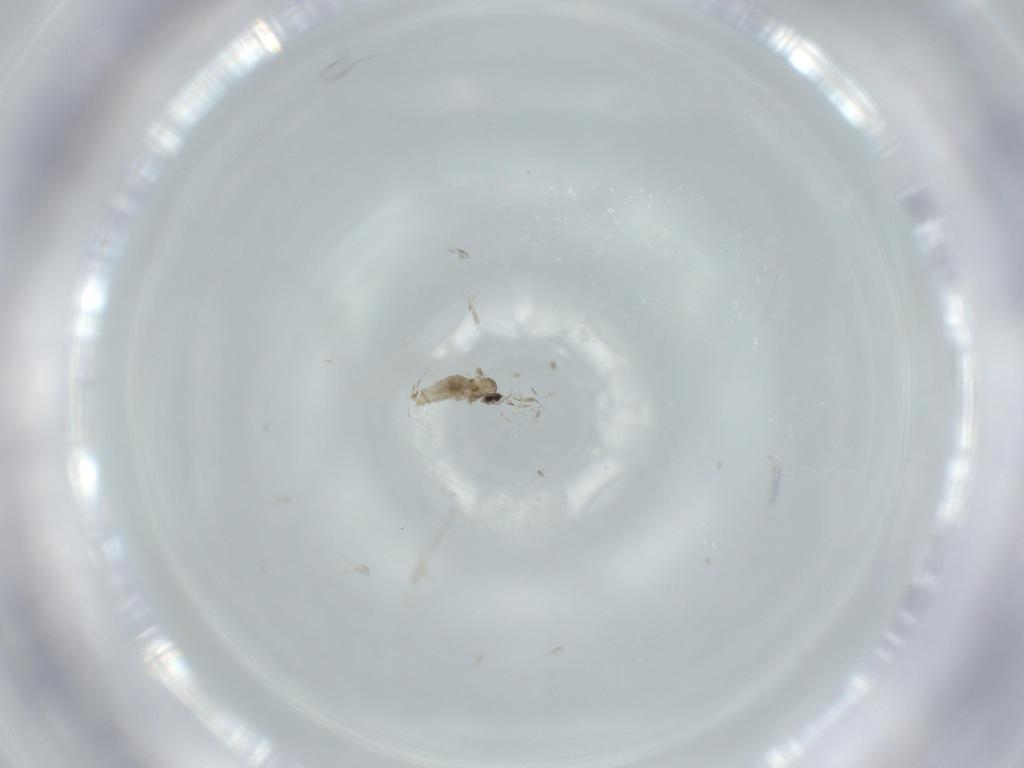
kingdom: Animalia
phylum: Arthropoda
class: Insecta
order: Diptera
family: Cecidomyiidae
